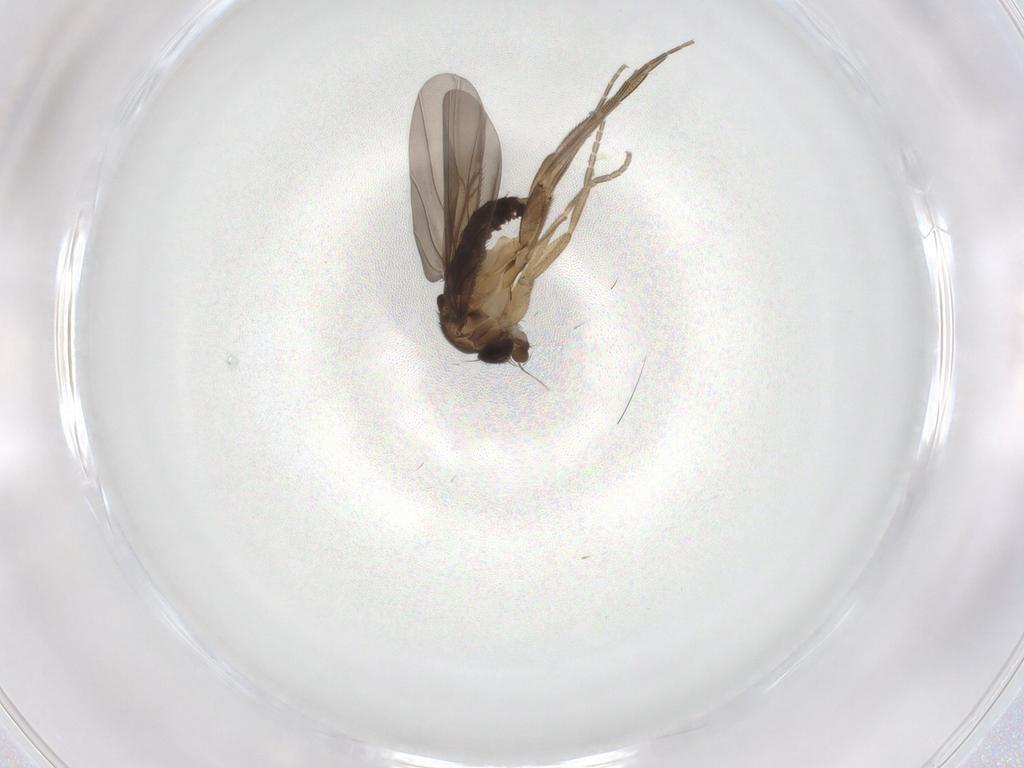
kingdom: Animalia
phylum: Arthropoda
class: Insecta
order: Diptera
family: Phoridae
